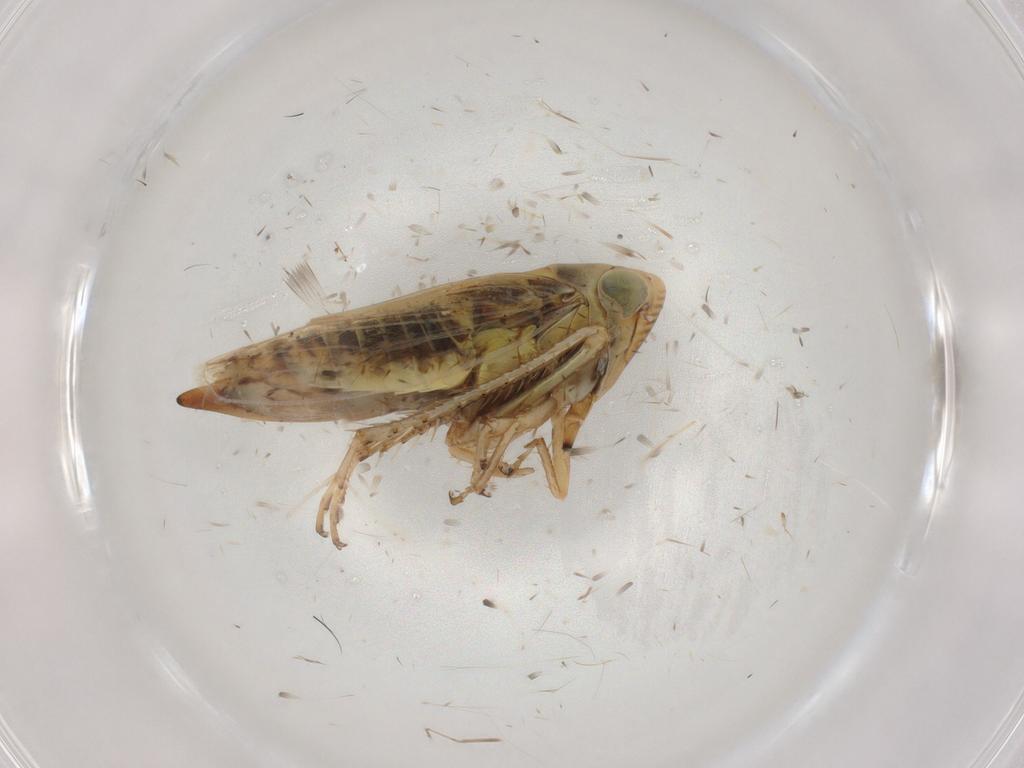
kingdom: Animalia
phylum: Arthropoda
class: Insecta
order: Hemiptera
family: Cicadellidae
